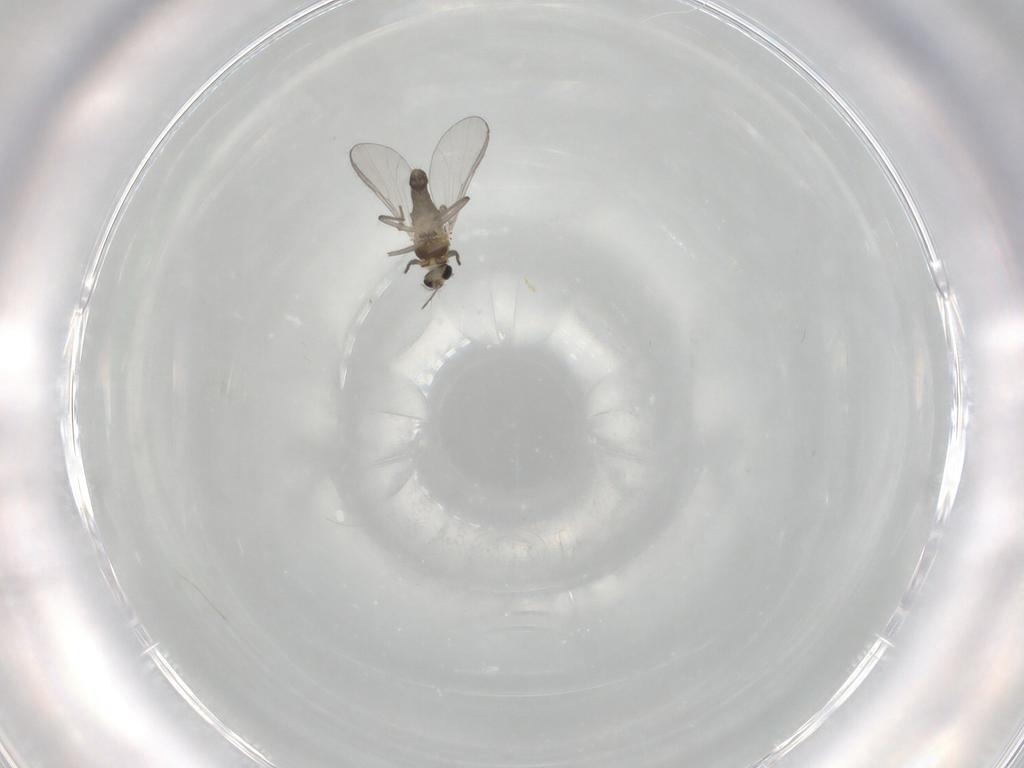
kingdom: Animalia
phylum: Arthropoda
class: Insecta
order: Diptera
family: Chironomidae
